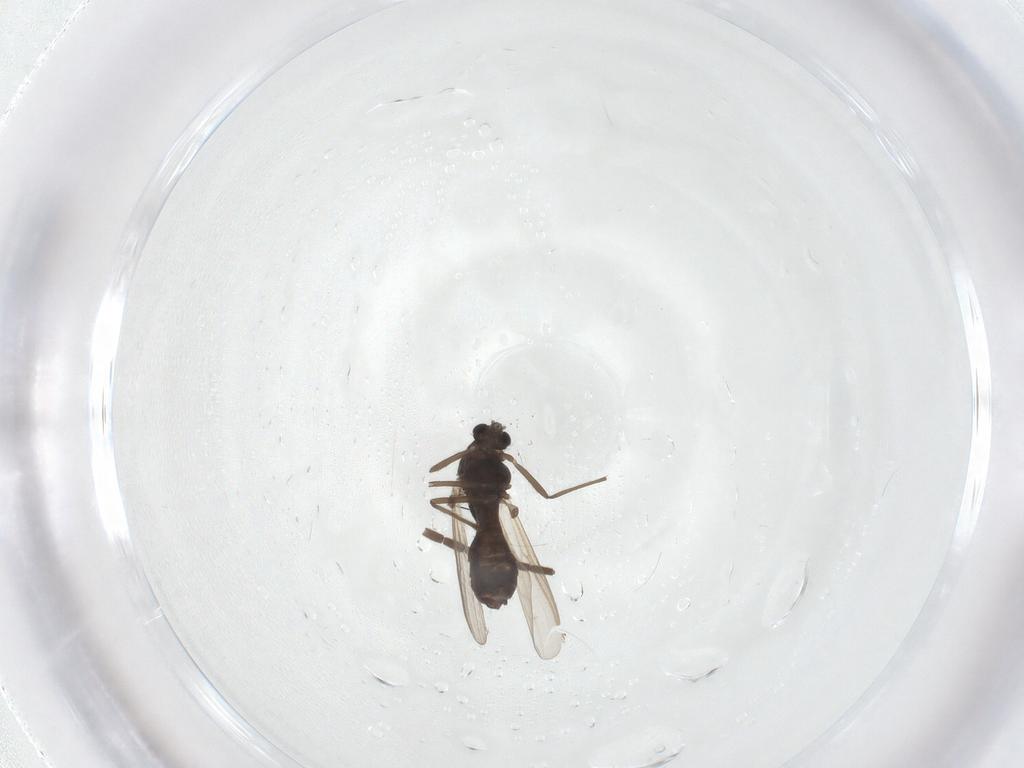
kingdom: Animalia
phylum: Arthropoda
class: Insecta
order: Diptera
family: Mycetophilidae
